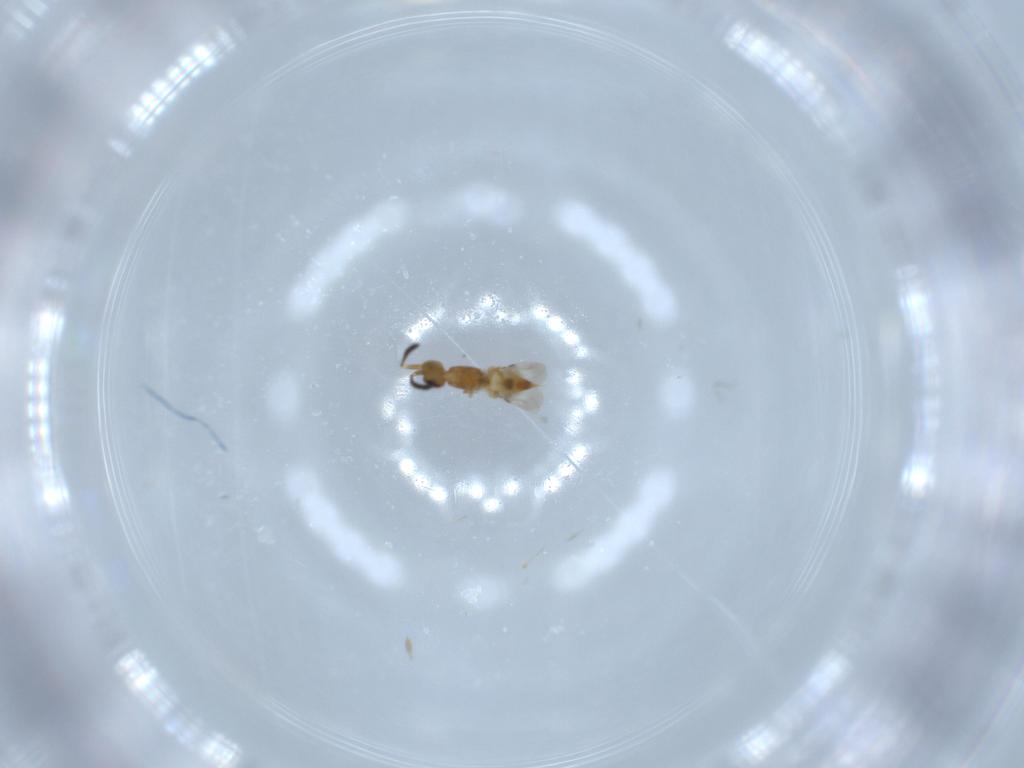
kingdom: Animalia
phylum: Arthropoda
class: Insecta
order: Hymenoptera
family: Ceraphronidae
